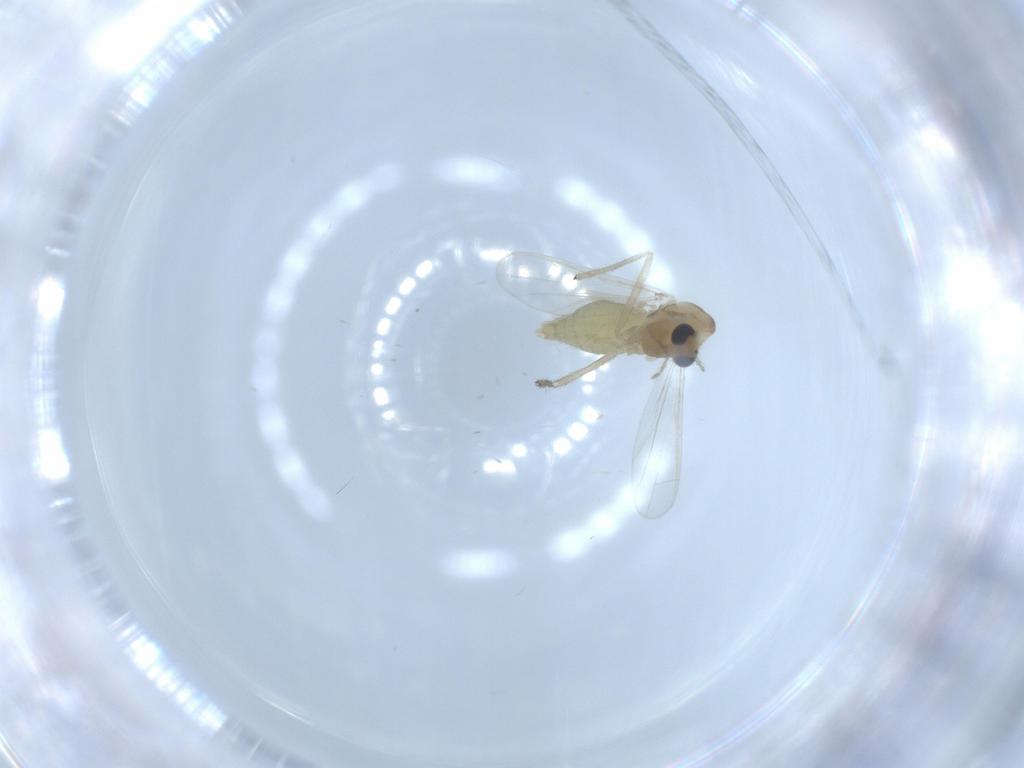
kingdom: Animalia
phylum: Arthropoda
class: Insecta
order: Diptera
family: Chironomidae
